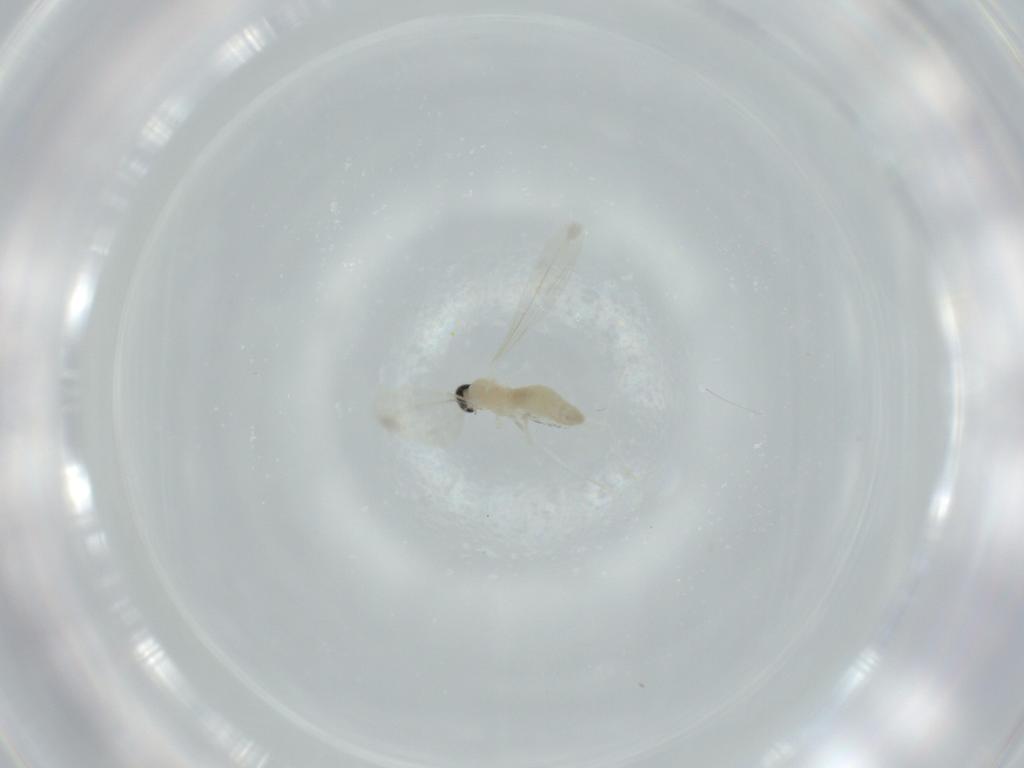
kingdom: Animalia
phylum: Arthropoda
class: Insecta
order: Diptera
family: Cecidomyiidae
